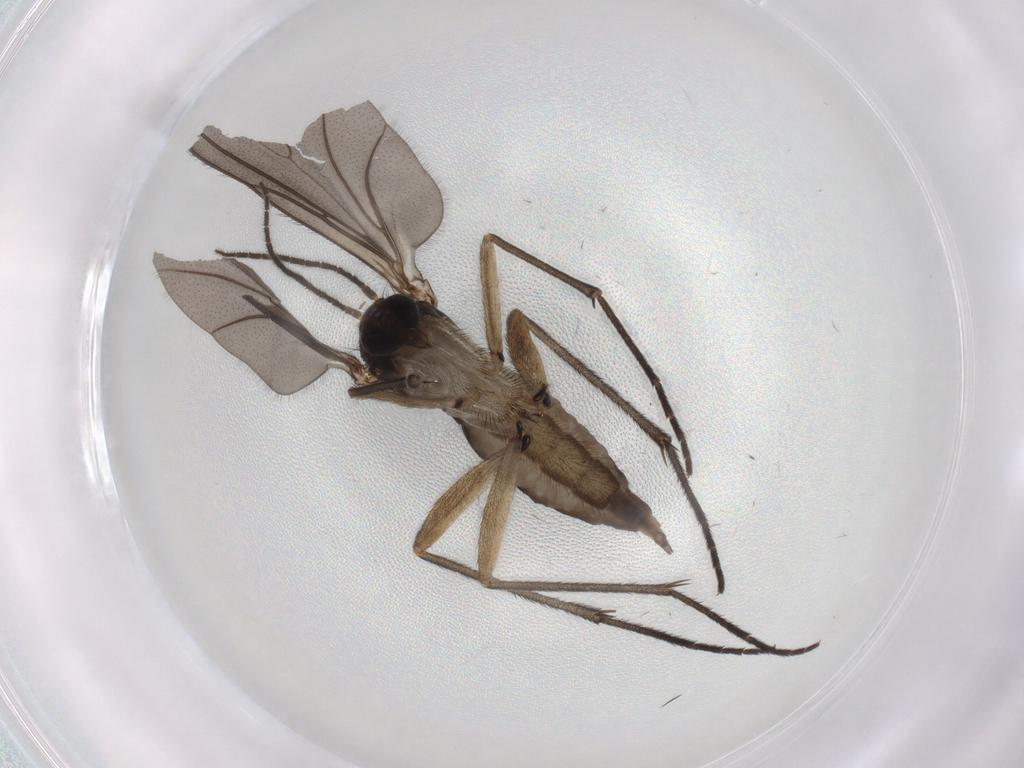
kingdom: Animalia
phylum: Arthropoda
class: Insecta
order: Diptera
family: Sciaridae
